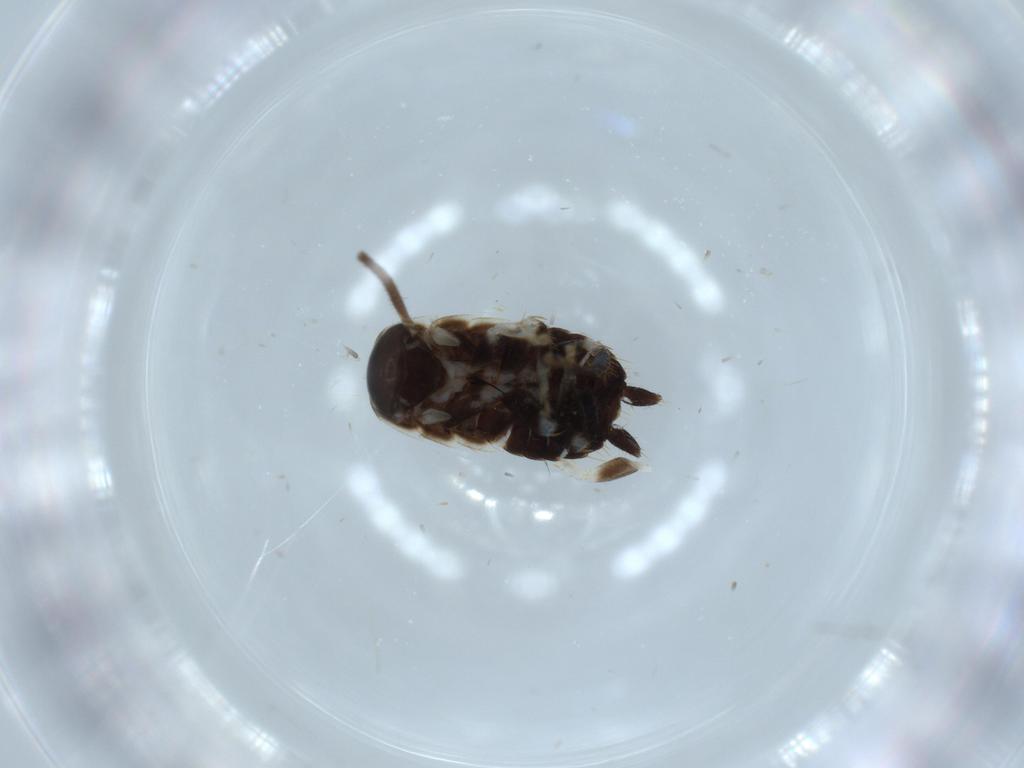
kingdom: Animalia
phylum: Arthropoda
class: Insecta
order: Blattodea
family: Ectobiidae
